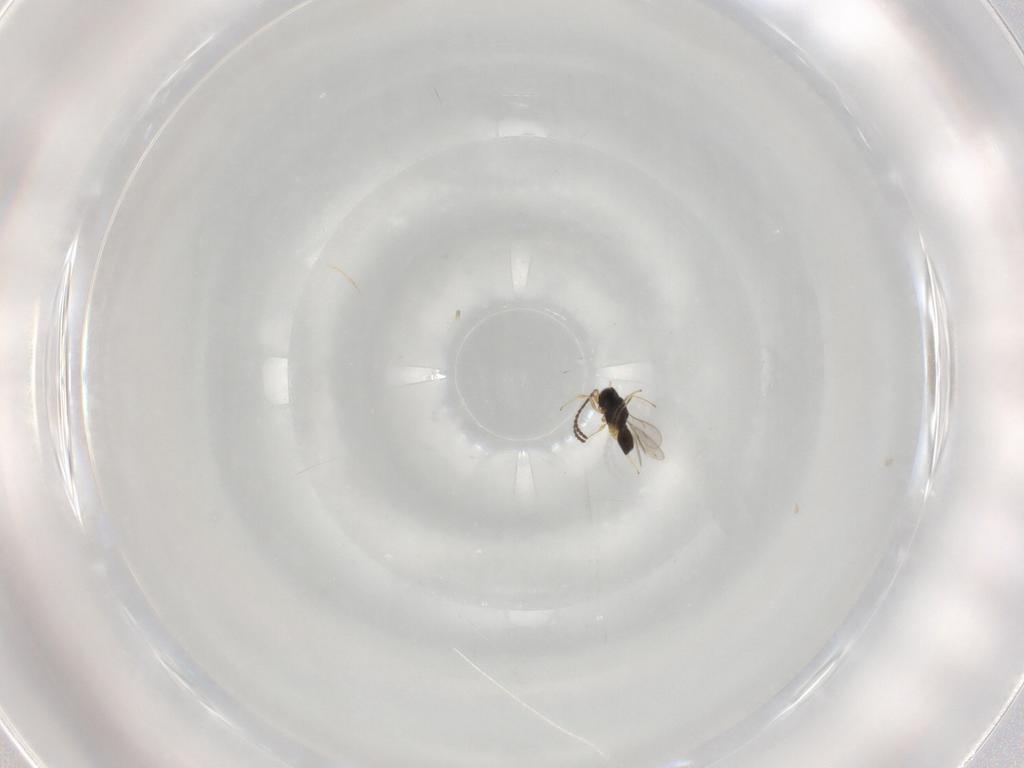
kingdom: Animalia
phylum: Arthropoda
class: Insecta
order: Hymenoptera
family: Scelionidae
